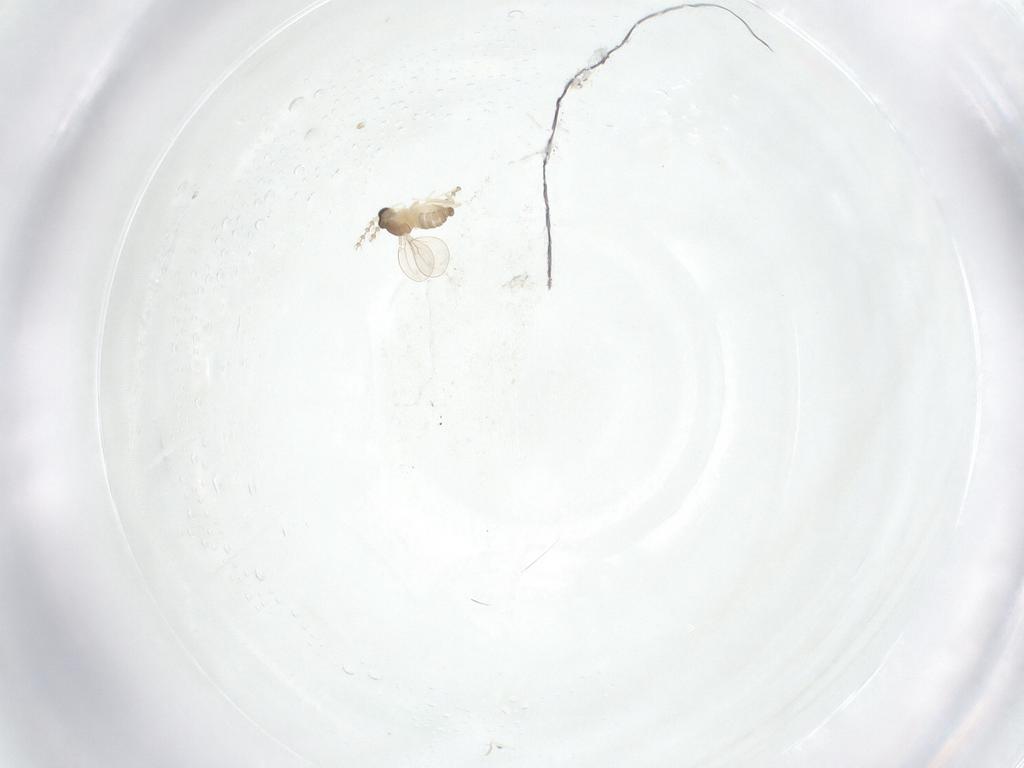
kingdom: Animalia
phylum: Arthropoda
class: Insecta
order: Diptera
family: Cecidomyiidae
